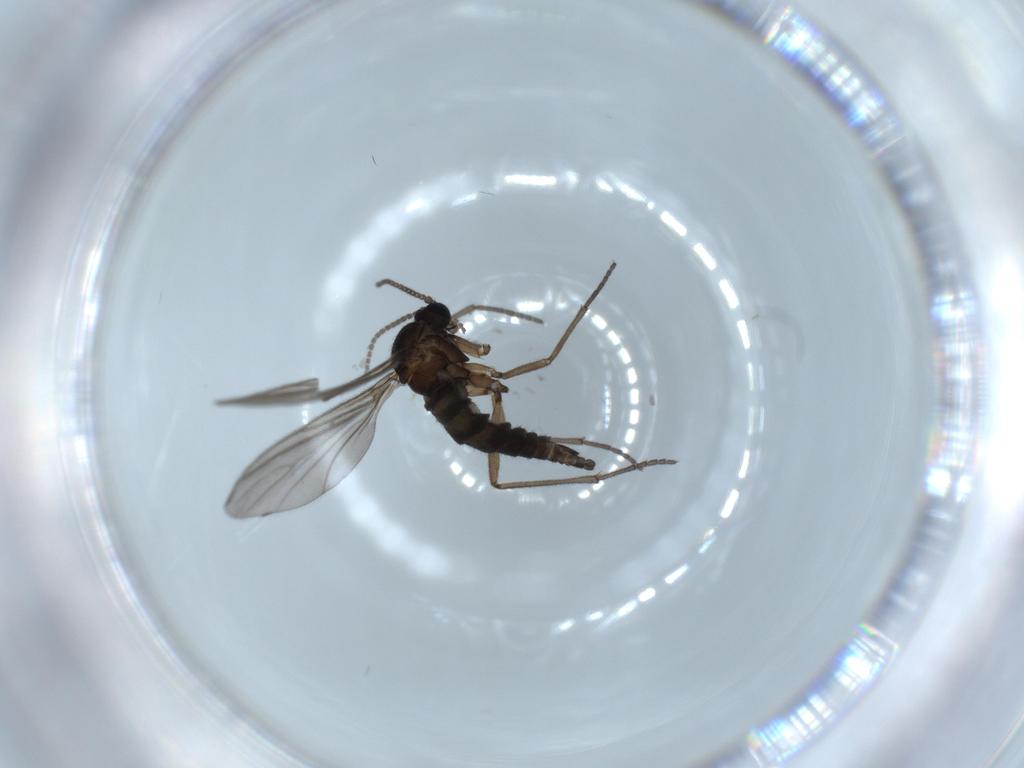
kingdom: Animalia
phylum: Arthropoda
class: Insecta
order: Diptera
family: Sciaridae
